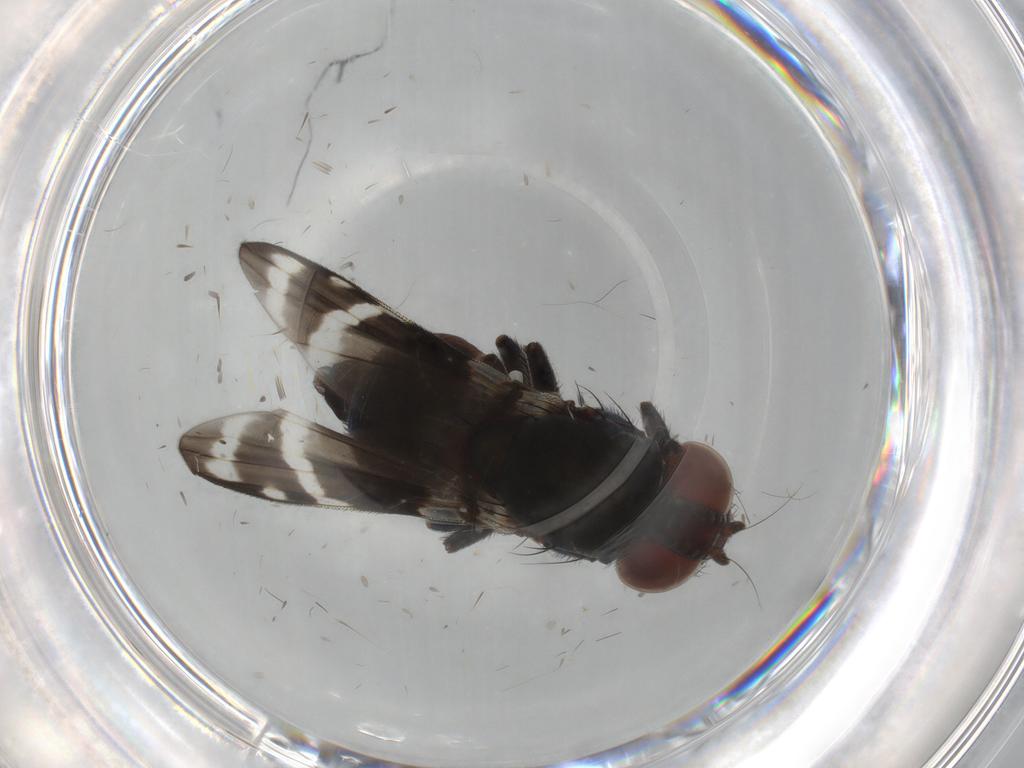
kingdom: Animalia
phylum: Arthropoda
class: Insecta
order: Diptera
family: Ulidiidae
